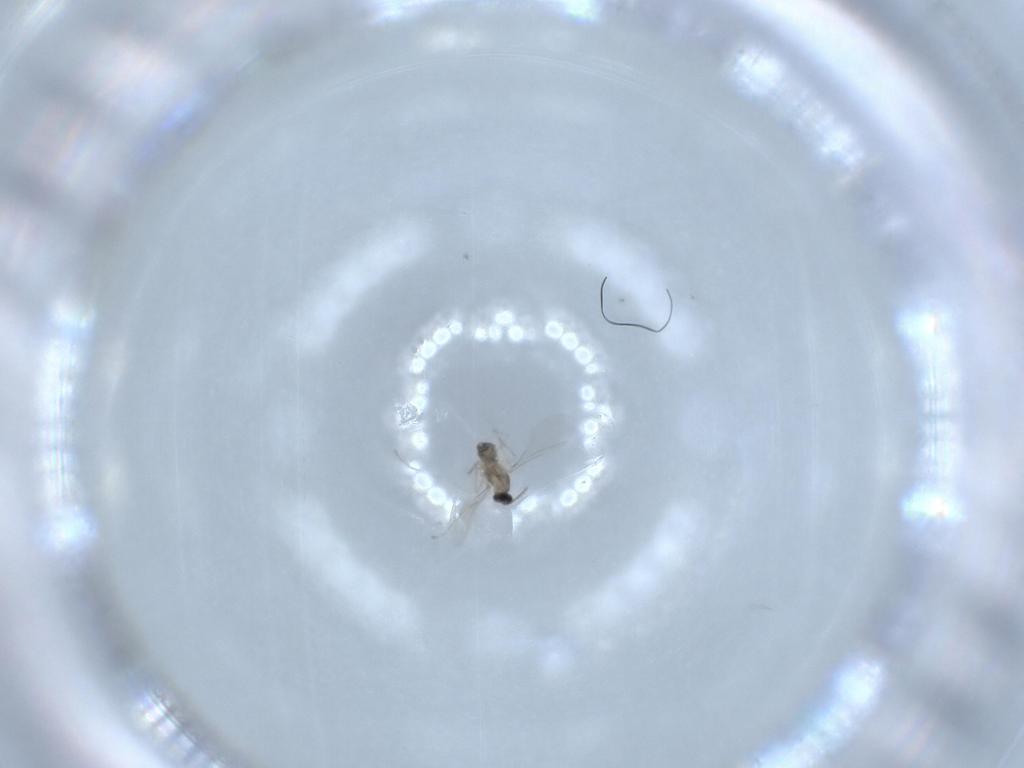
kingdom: Animalia
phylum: Arthropoda
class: Insecta
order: Diptera
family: Cecidomyiidae
